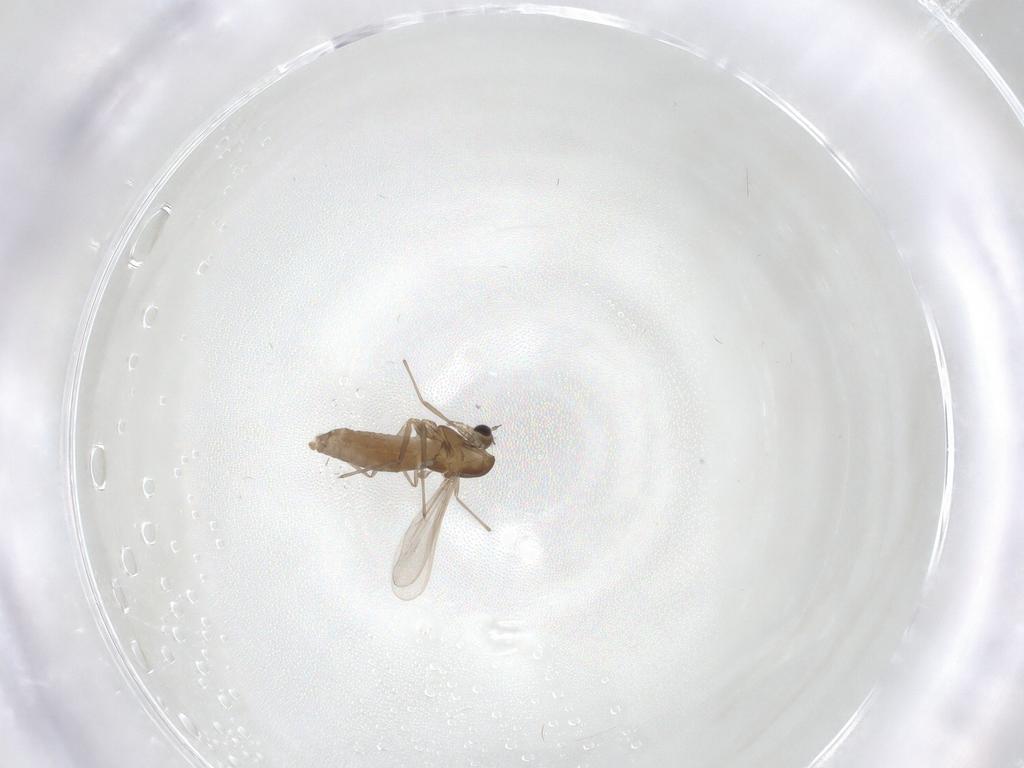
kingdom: Animalia
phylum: Arthropoda
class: Insecta
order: Diptera
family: Chironomidae
